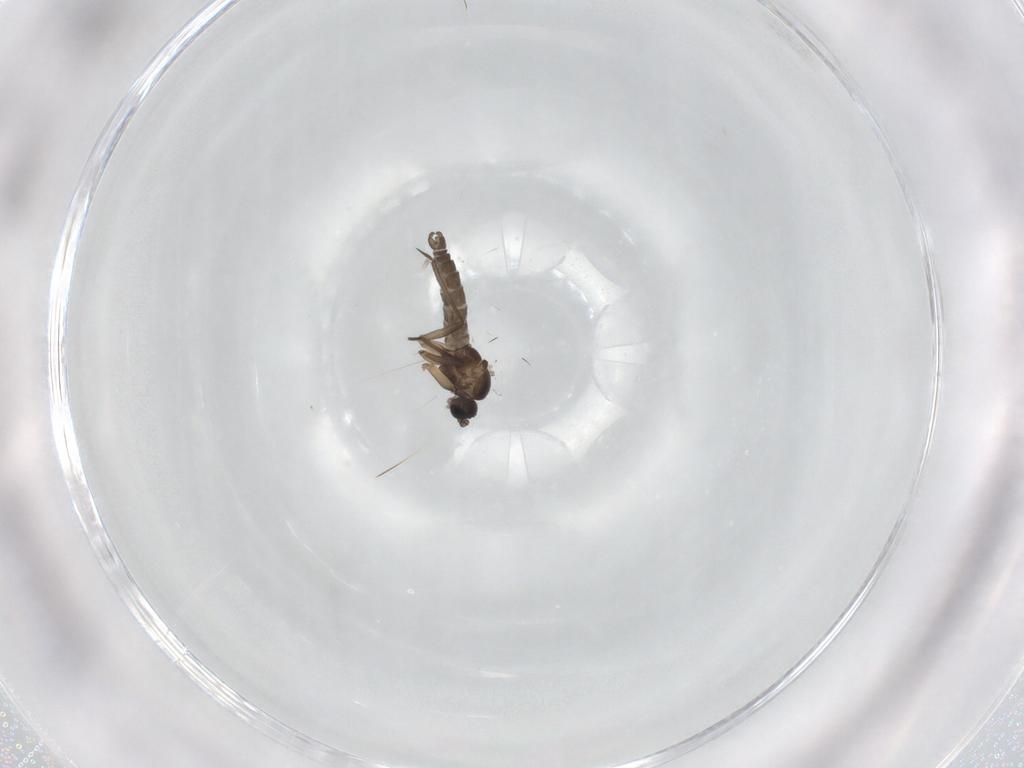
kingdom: Animalia
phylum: Arthropoda
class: Insecta
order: Diptera
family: Sciaridae
